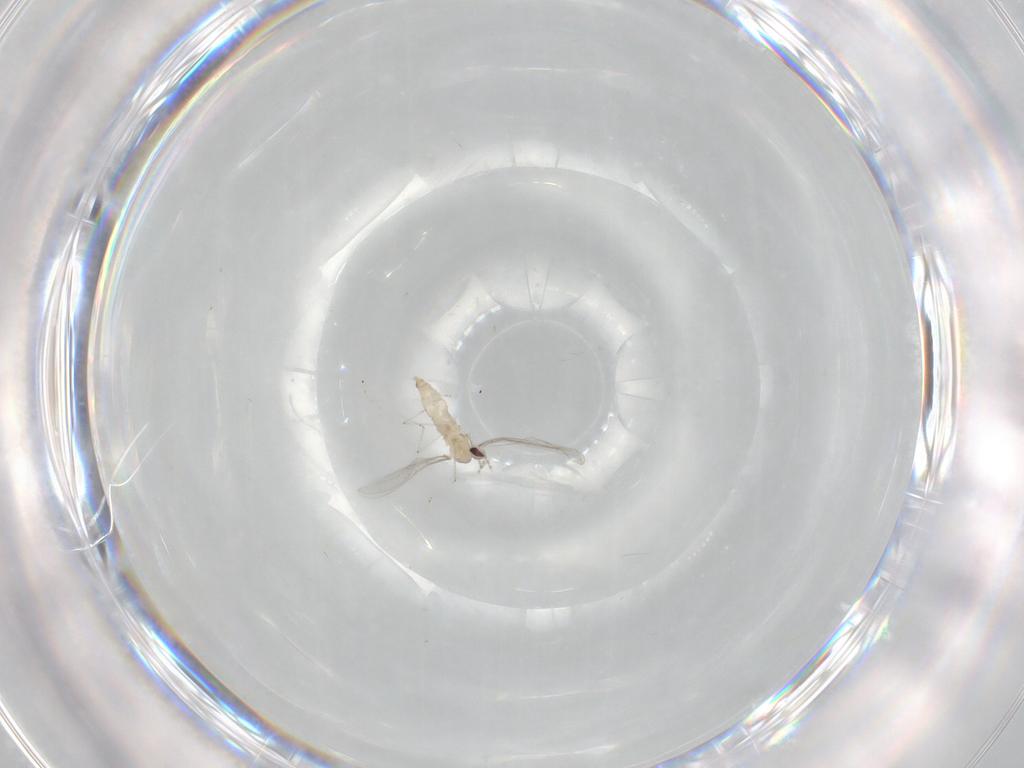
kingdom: Animalia
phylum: Arthropoda
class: Insecta
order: Diptera
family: Cecidomyiidae
